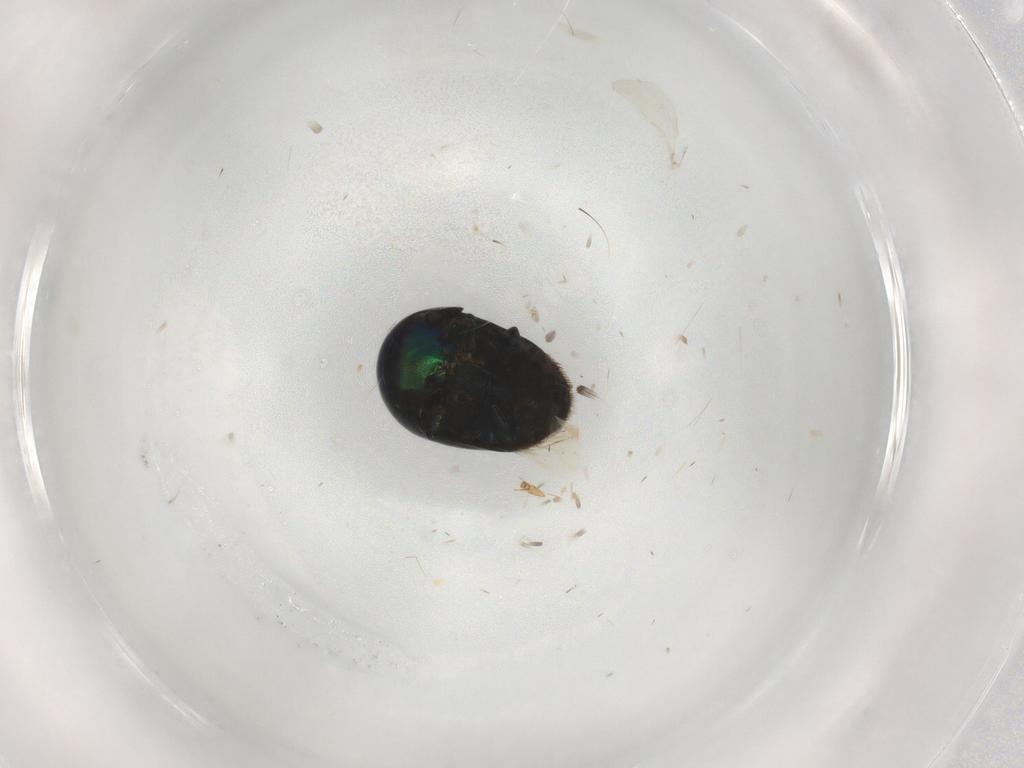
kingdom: Animalia
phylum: Arthropoda
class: Insecta
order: Coleoptera
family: Cybocephalidae
